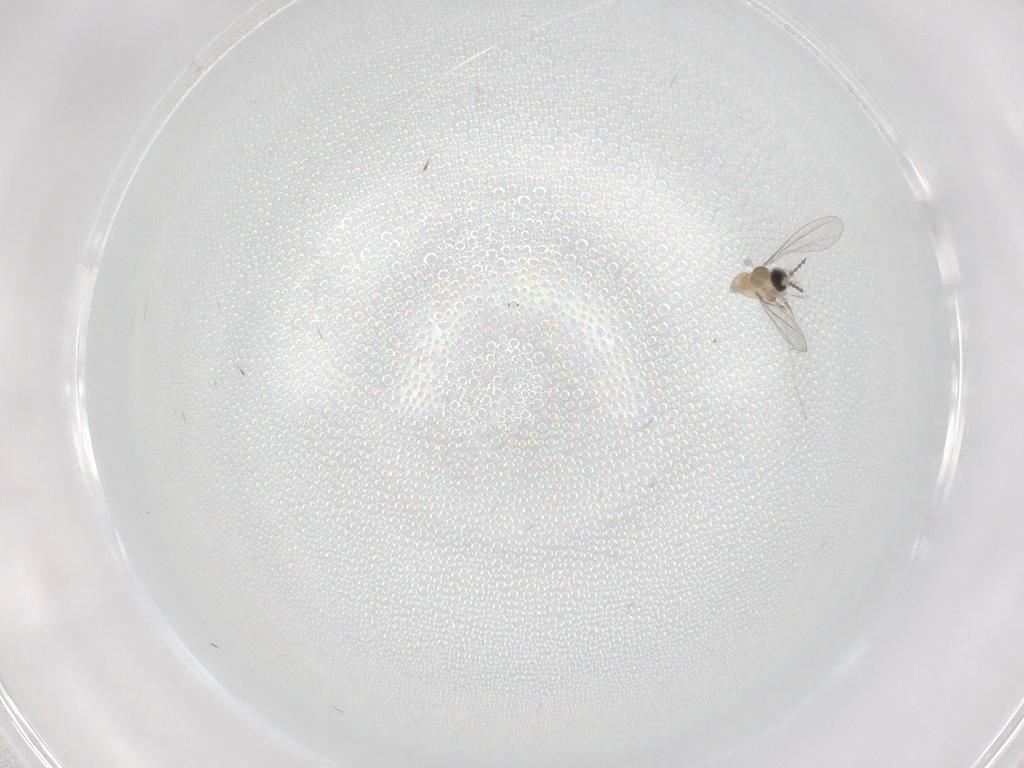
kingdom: Animalia
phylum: Arthropoda
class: Insecta
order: Diptera
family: Cecidomyiidae
